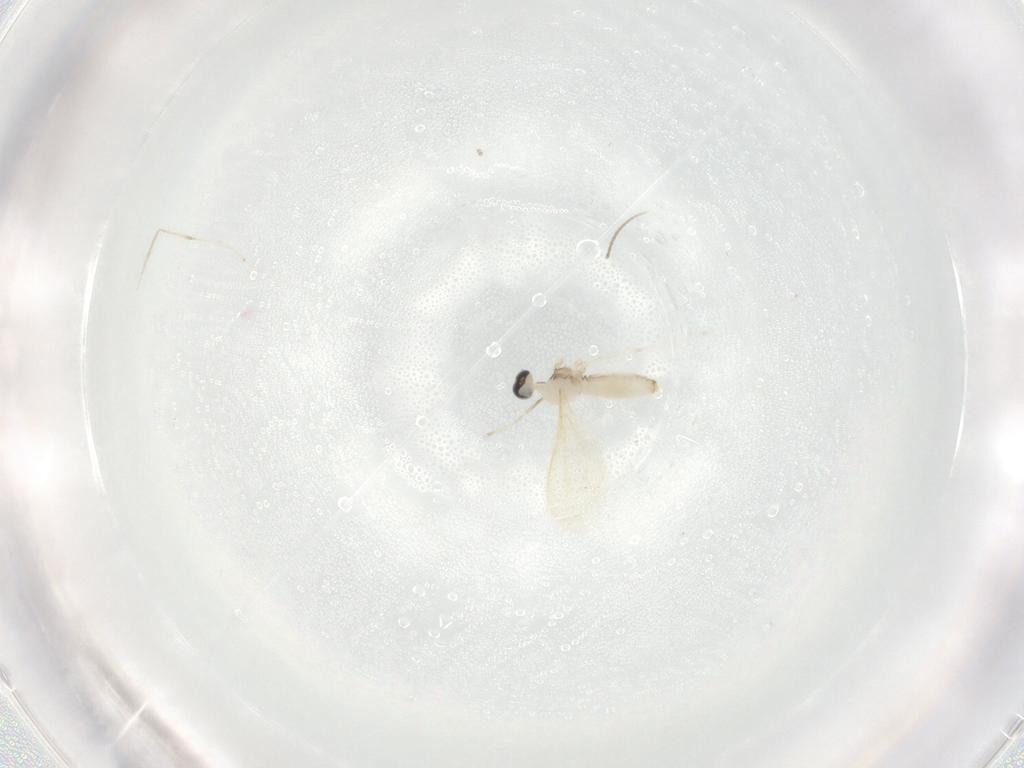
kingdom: Animalia
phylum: Arthropoda
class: Insecta
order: Diptera
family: Cecidomyiidae
